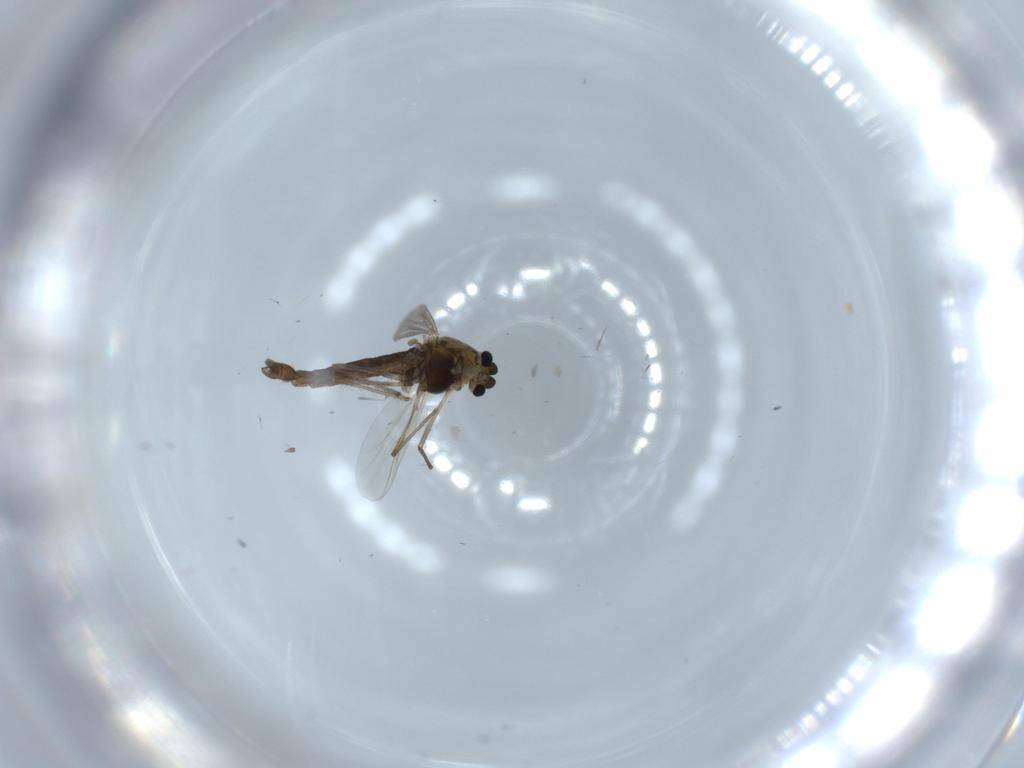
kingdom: Animalia
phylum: Arthropoda
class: Insecta
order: Diptera
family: Chironomidae
